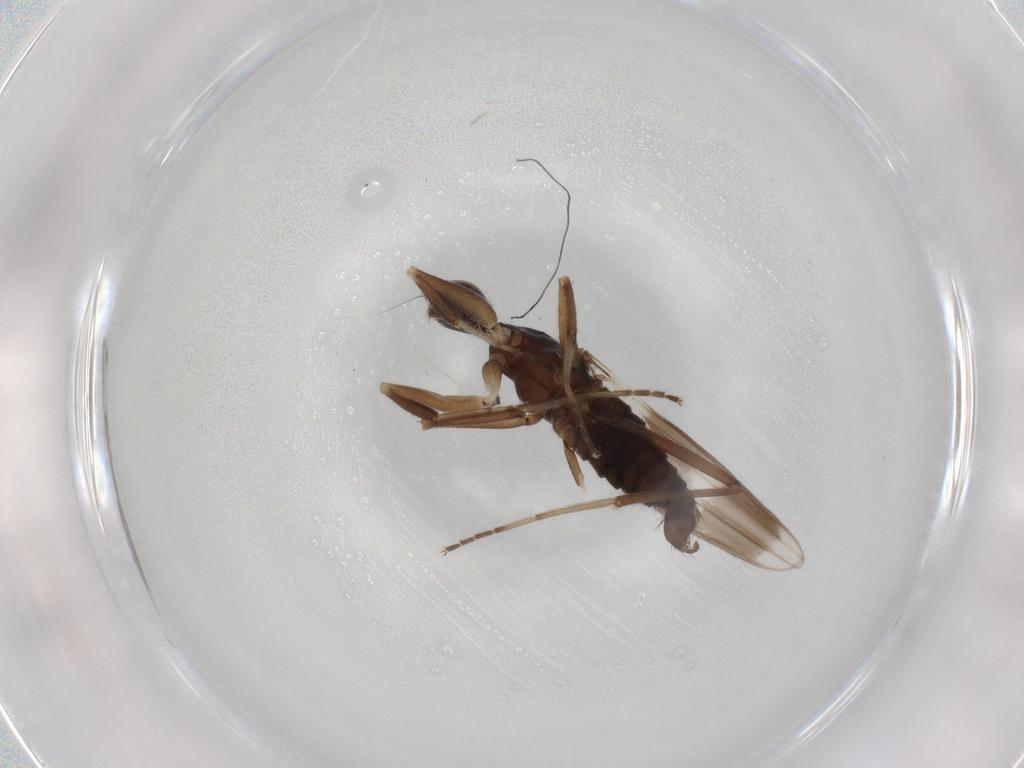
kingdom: Animalia
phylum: Arthropoda
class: Insecta
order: Diptera
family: Hybotidae
